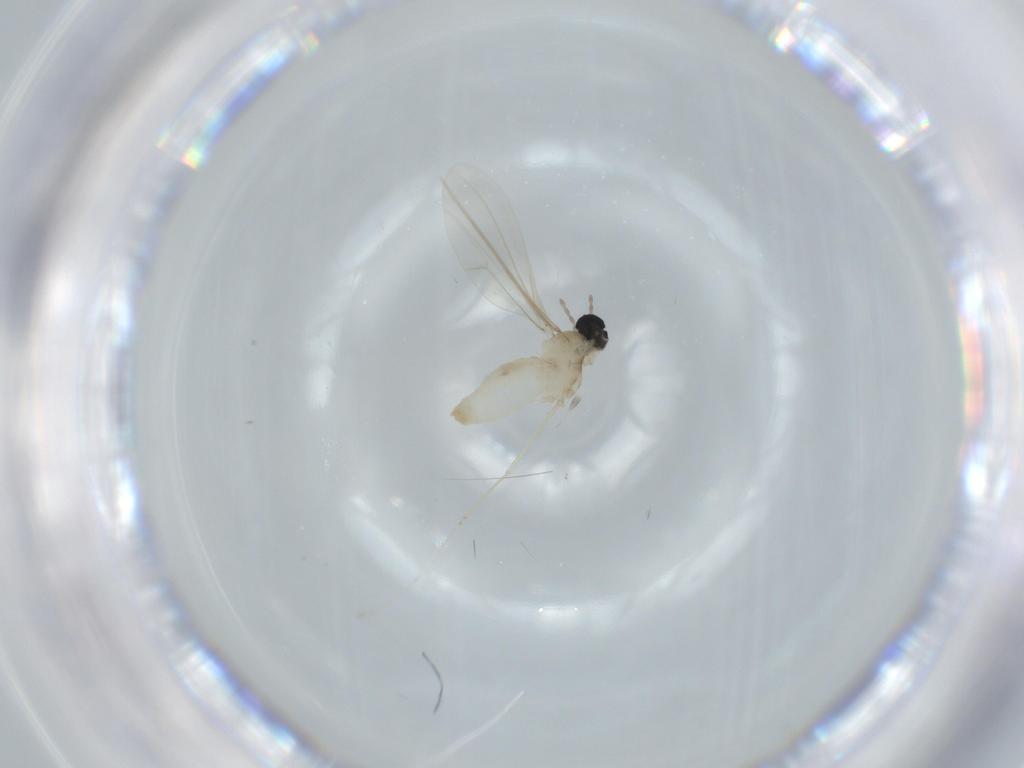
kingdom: Animalia
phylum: Arthropoda
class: Insecta
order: Diptera
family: Cecidomyiidae
